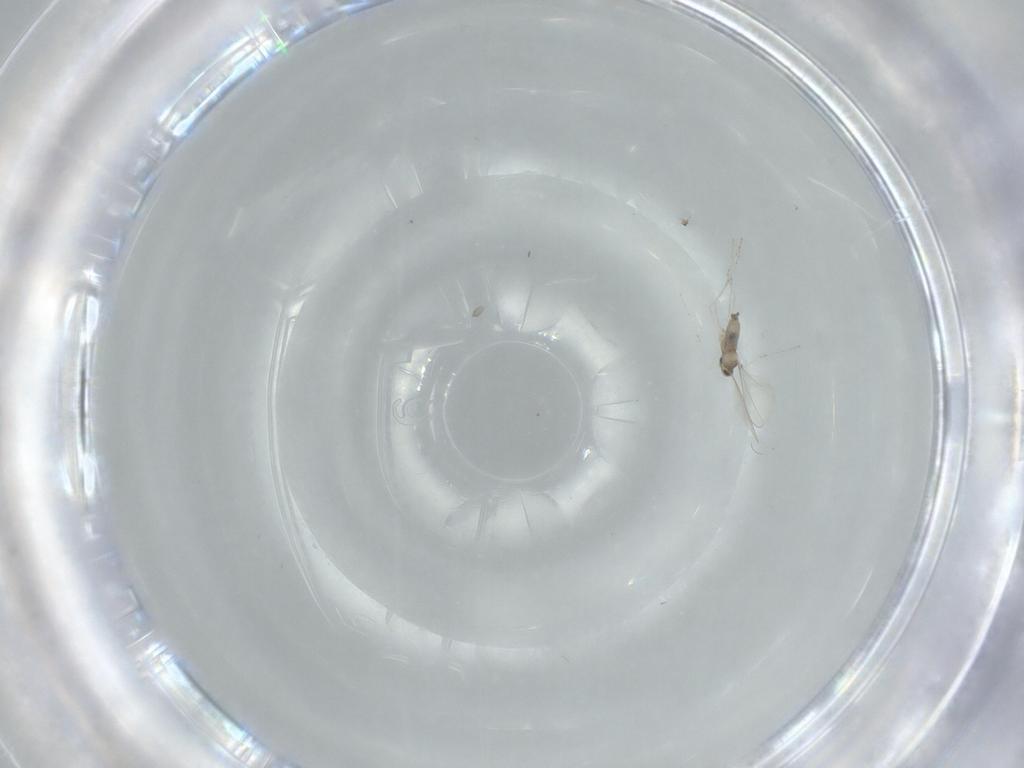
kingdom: Animalia
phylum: Arthropoda
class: Insecta
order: Diptera
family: Cecidomyiidae
